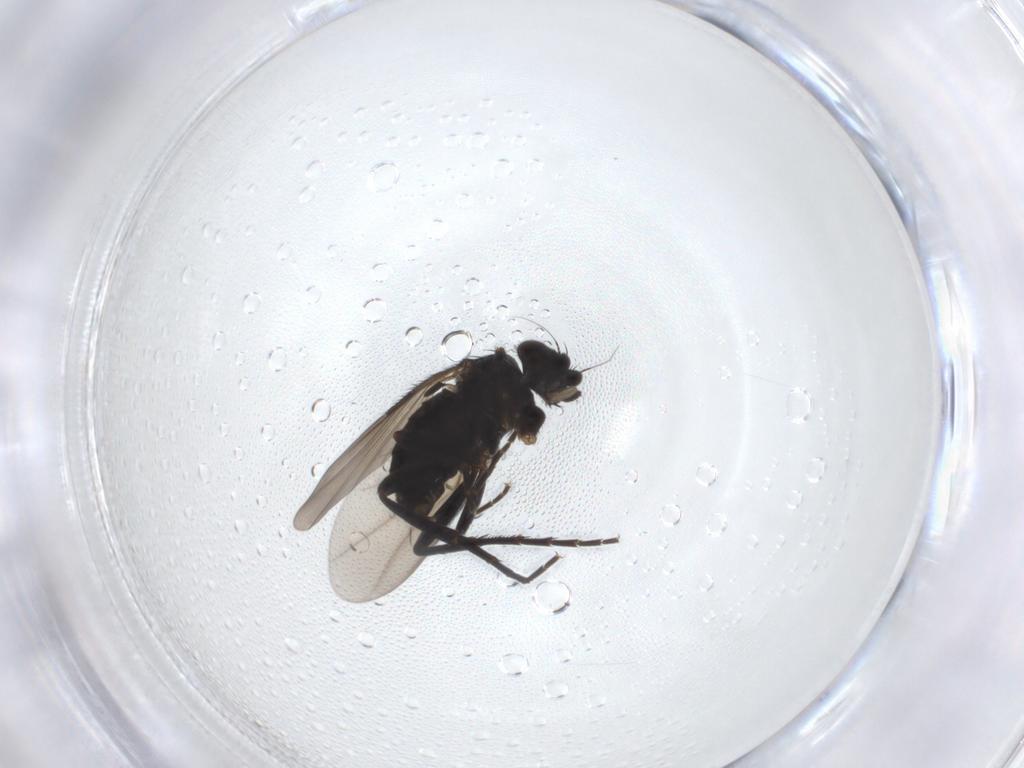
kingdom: Animalia
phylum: Arthropoda
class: Insecta
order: Diptera
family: Phoridae
